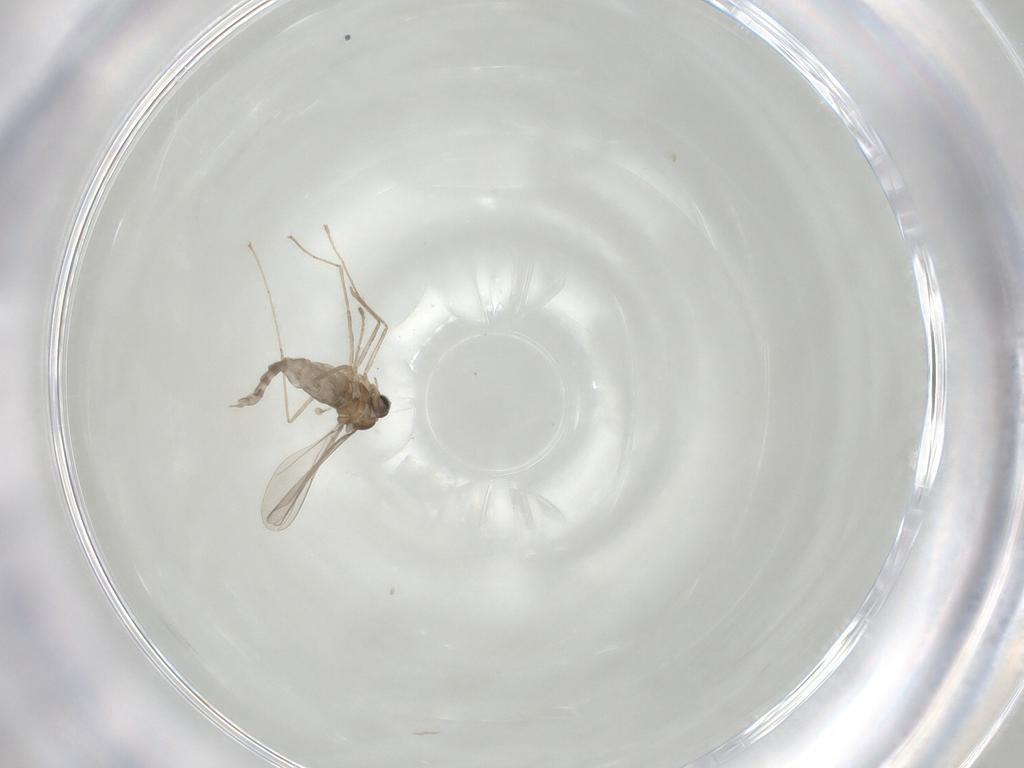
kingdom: Animalia
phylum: Arthropoda
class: Insecta
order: Diptera
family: Cecidomyiidae
